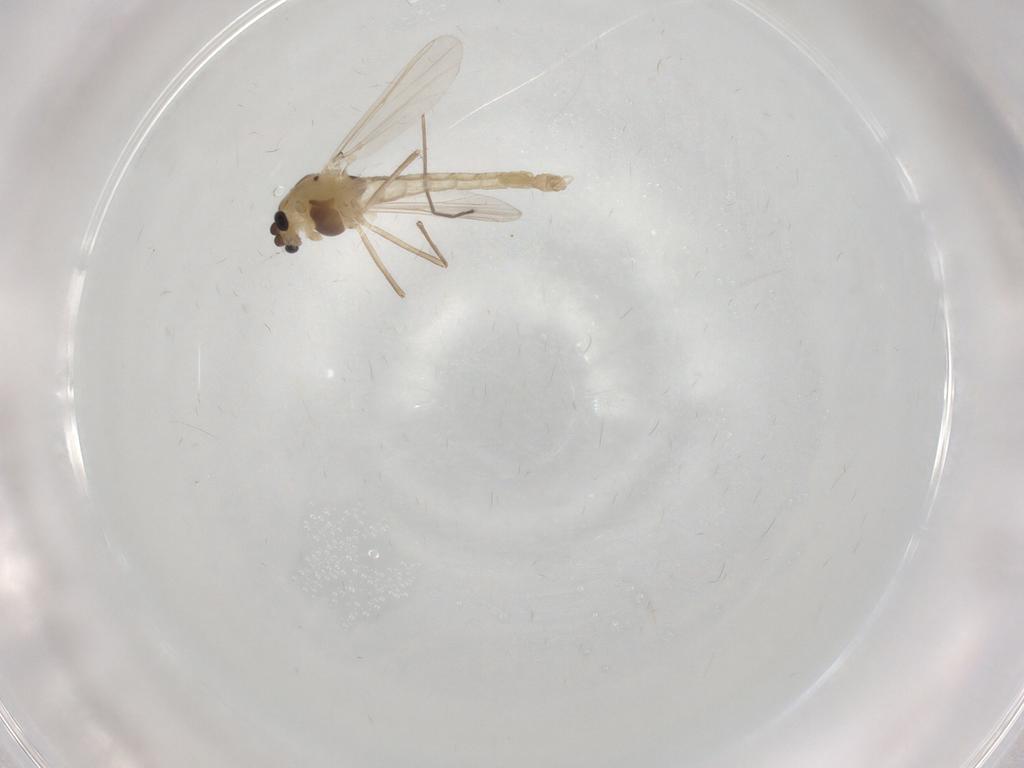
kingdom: Animalia
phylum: Arthropoda
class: Insecta
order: Diptera
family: Chironomidae
